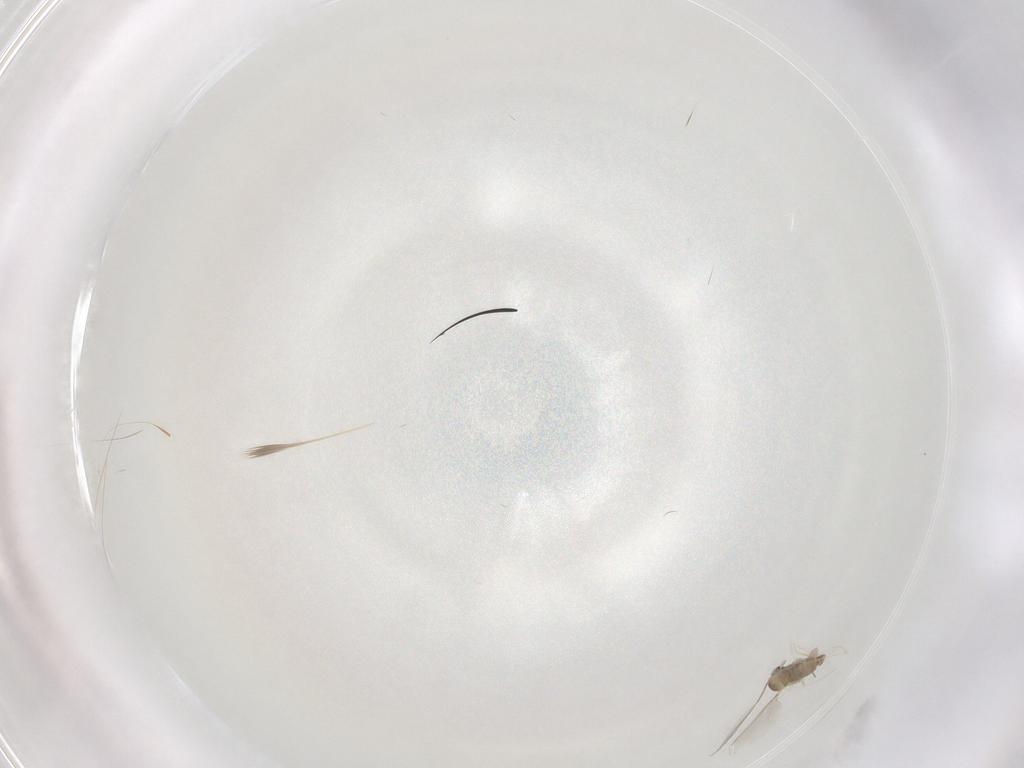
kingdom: Animalia
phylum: Arthropoda
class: Insecta
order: Diptera
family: Cecidomyiidae
